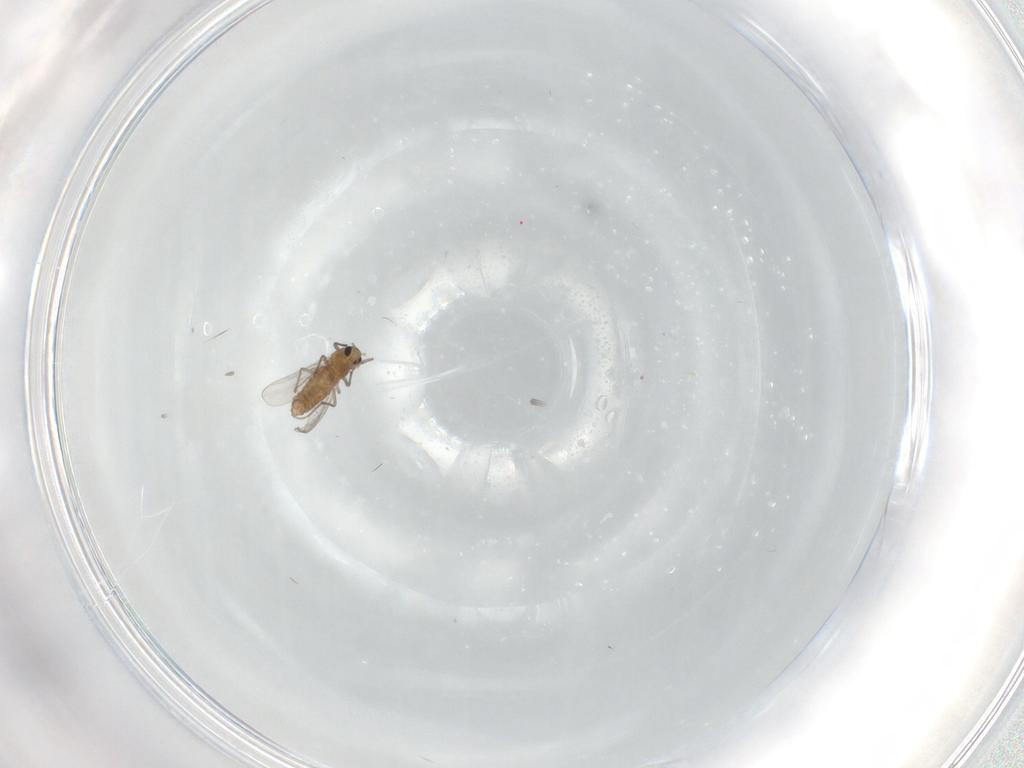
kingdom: Animalia
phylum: Arthropoda
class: Insecta
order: Diptera
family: Chironomidae
